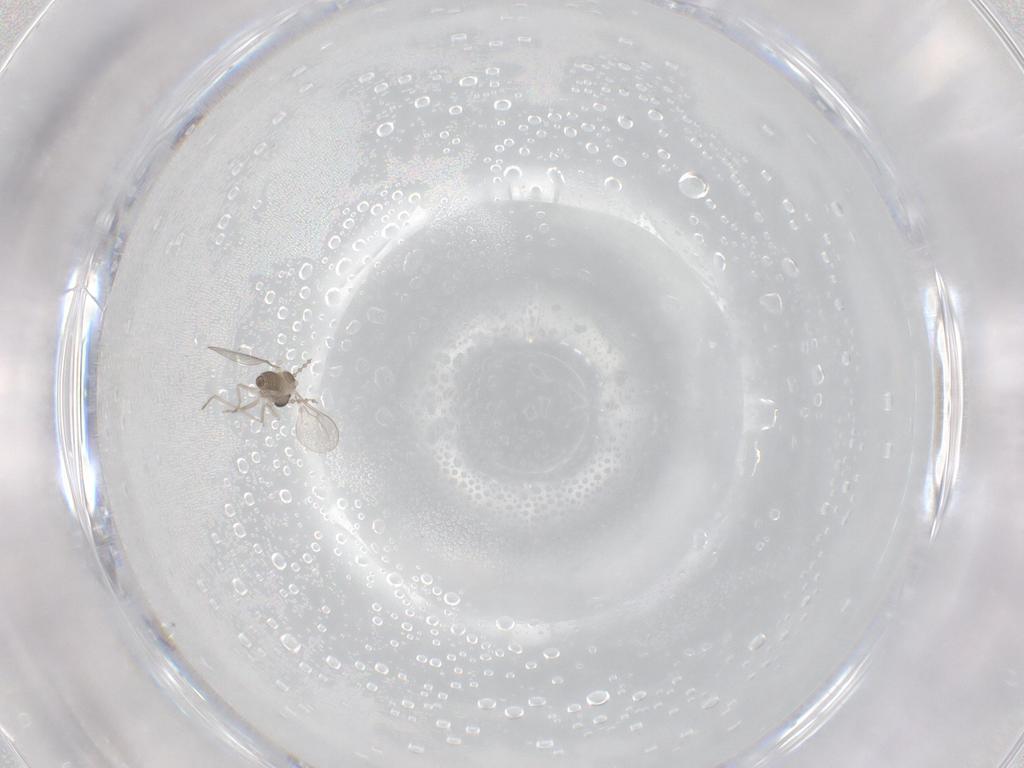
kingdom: Animalia
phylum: Arthropoda
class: Insecta
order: Diptera
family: Cecidomyiidae
